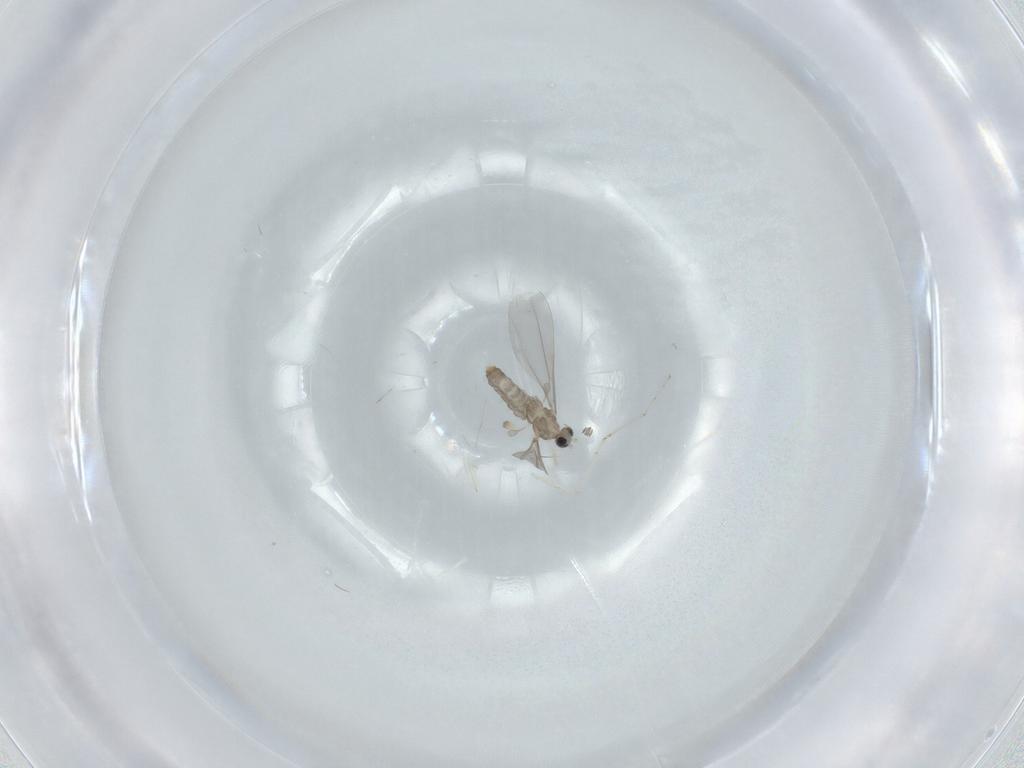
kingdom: Animalia
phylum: Arthropoda
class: Insecta
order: Diptera
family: Cecidomyiidae
